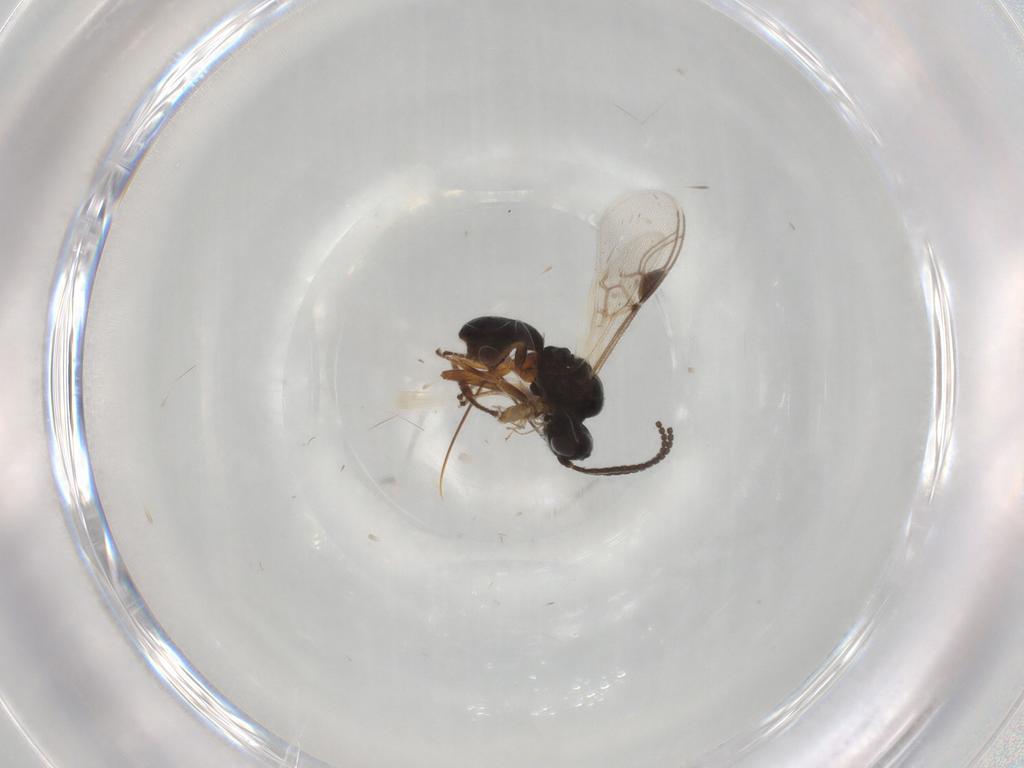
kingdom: Animalia
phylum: Arthropoda
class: Insecta
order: Hymenoptera
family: Braconidae
